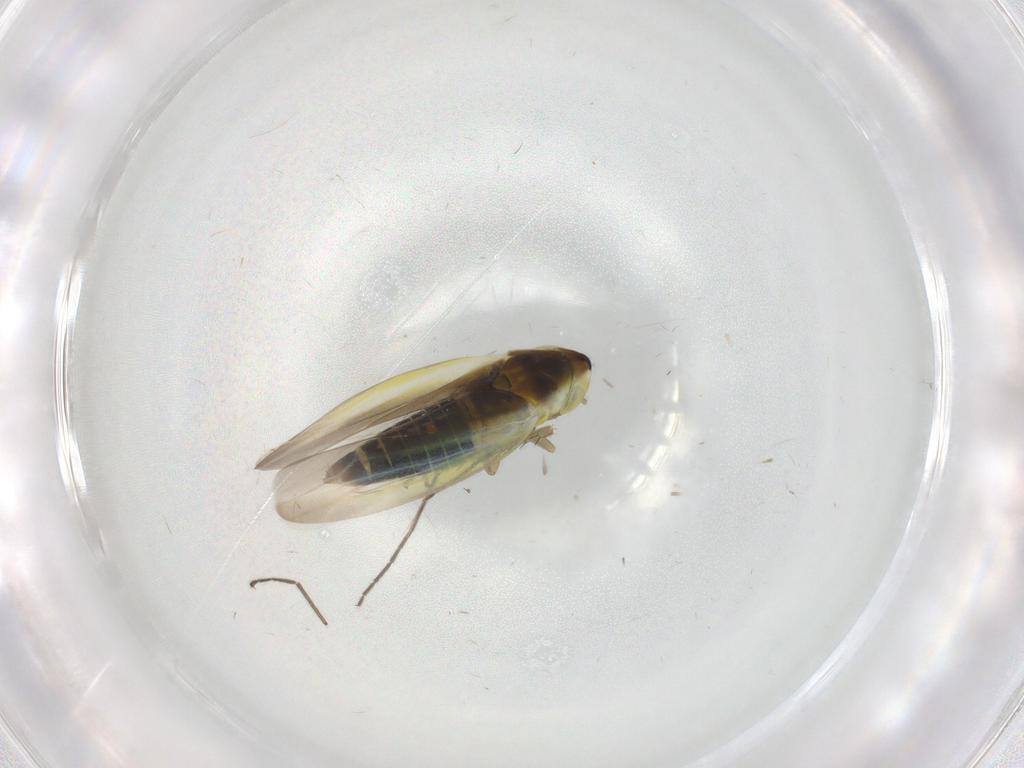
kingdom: Animalia
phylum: Arthropoda
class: Insecta
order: Hemiptera
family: Cicadellidae
